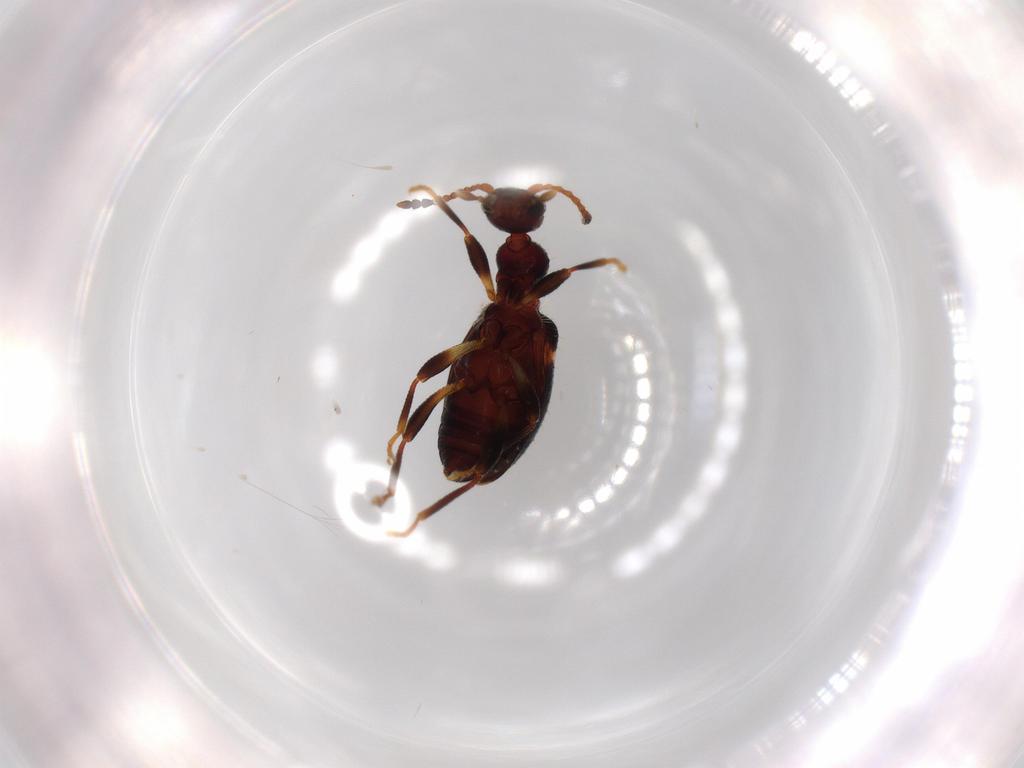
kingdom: Animalia
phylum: Arthropoda
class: Insecta
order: Coleoptera
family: Anthicidae
